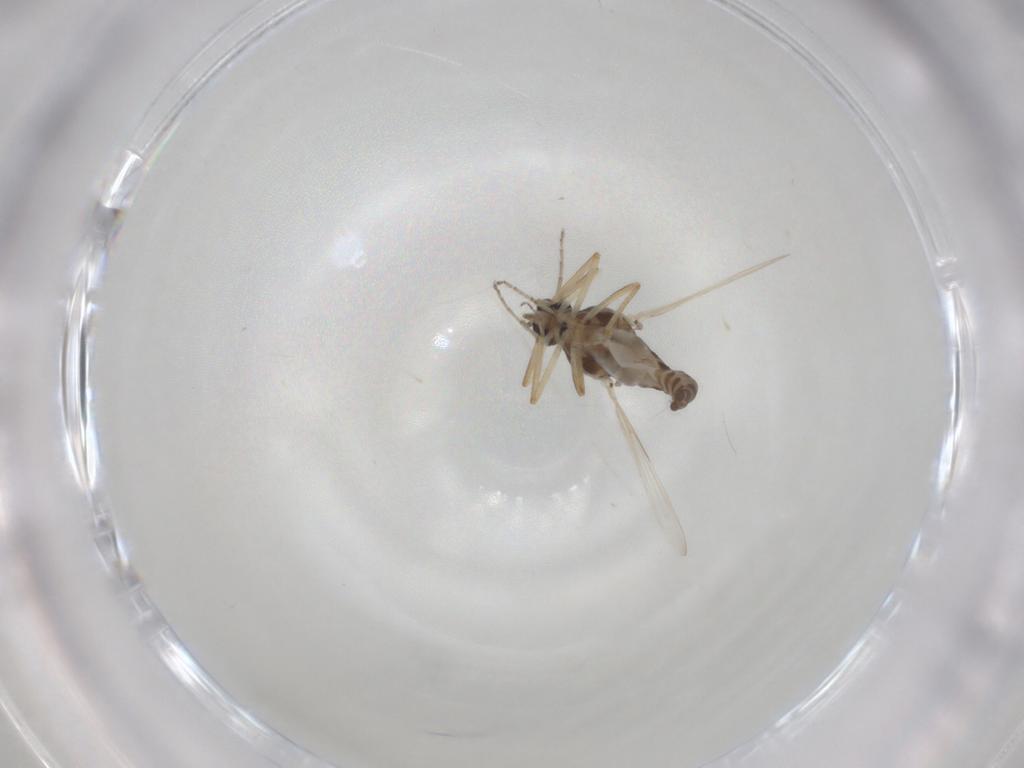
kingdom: Animalia
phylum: Arthropoda
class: Insecta
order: Diptera
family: Ceratopogonidae
